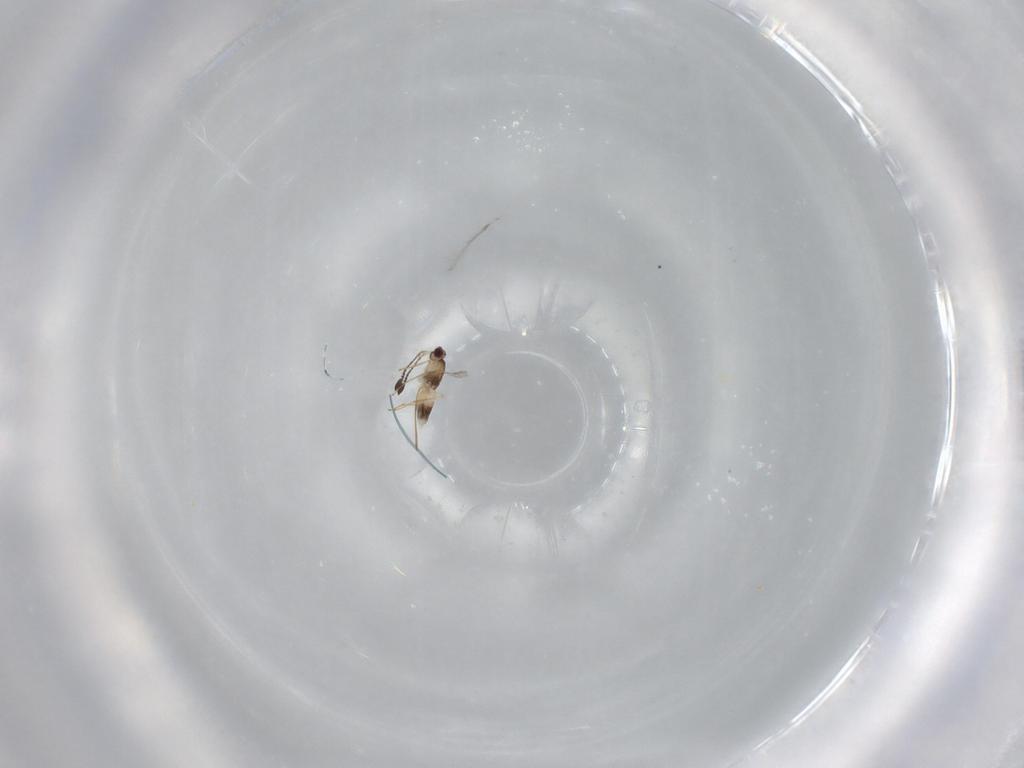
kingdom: Animalia
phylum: Arthropoda
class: Insecta
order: Hymenoptera
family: Mymaridae
